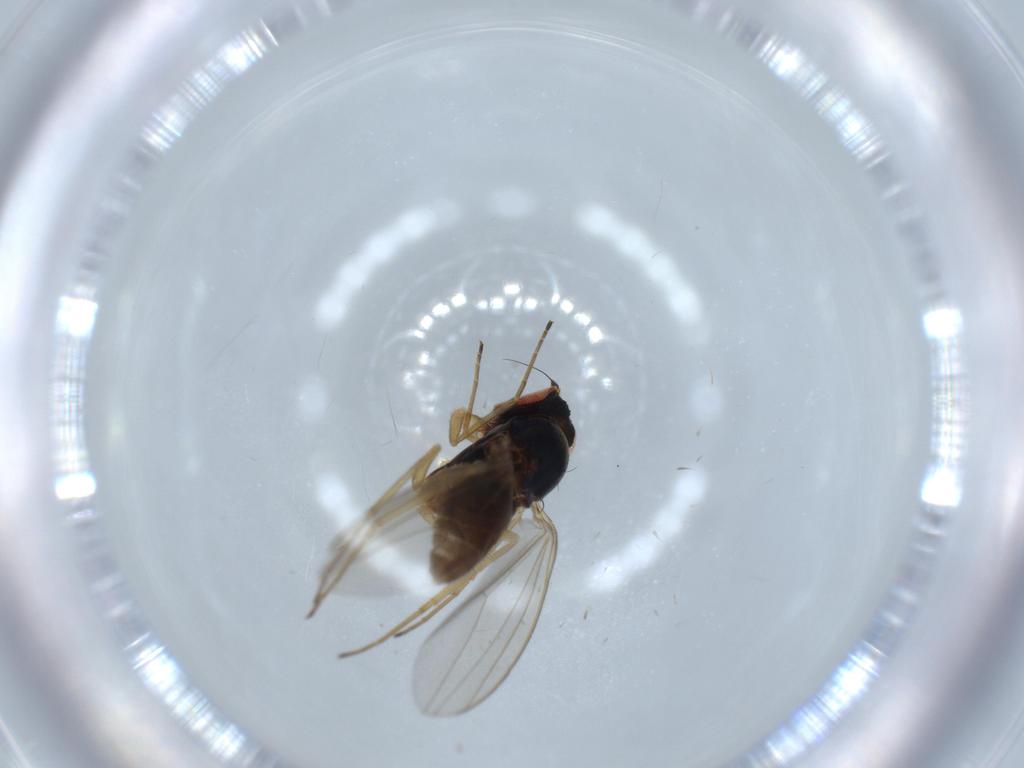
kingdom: Animalia
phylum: Arthropoda
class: Insecta
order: Diptera
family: Dolichopodidae
